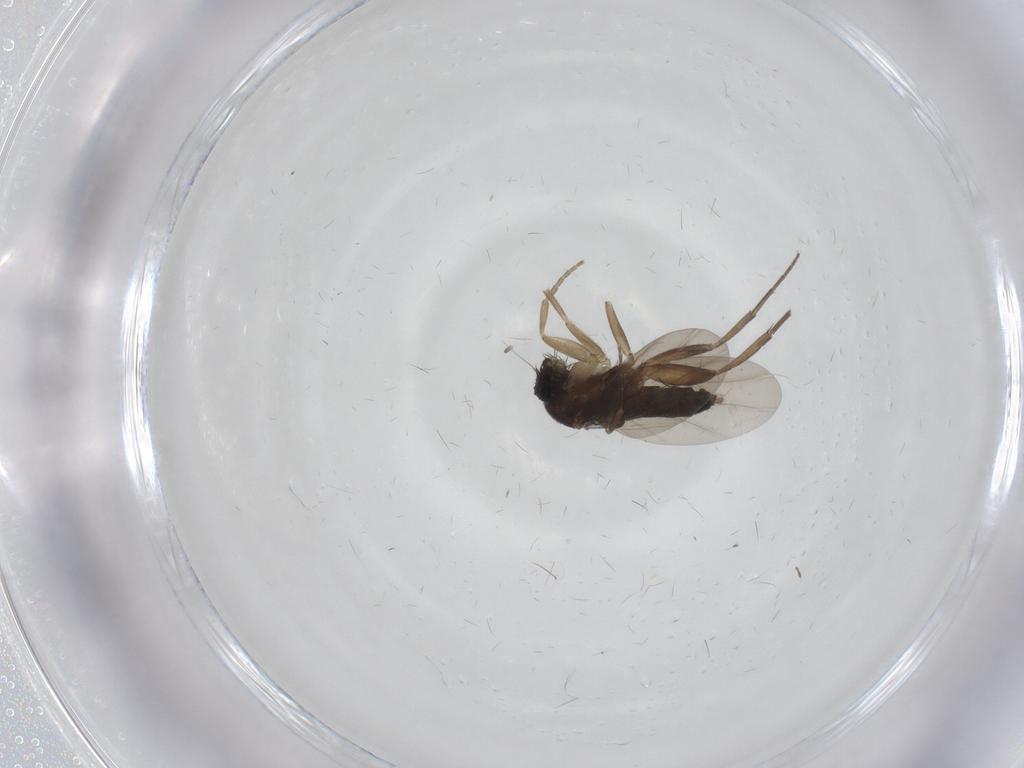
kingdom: Animalia
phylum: Arthropoda
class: Insecta
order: Diptera
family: Phoridae
